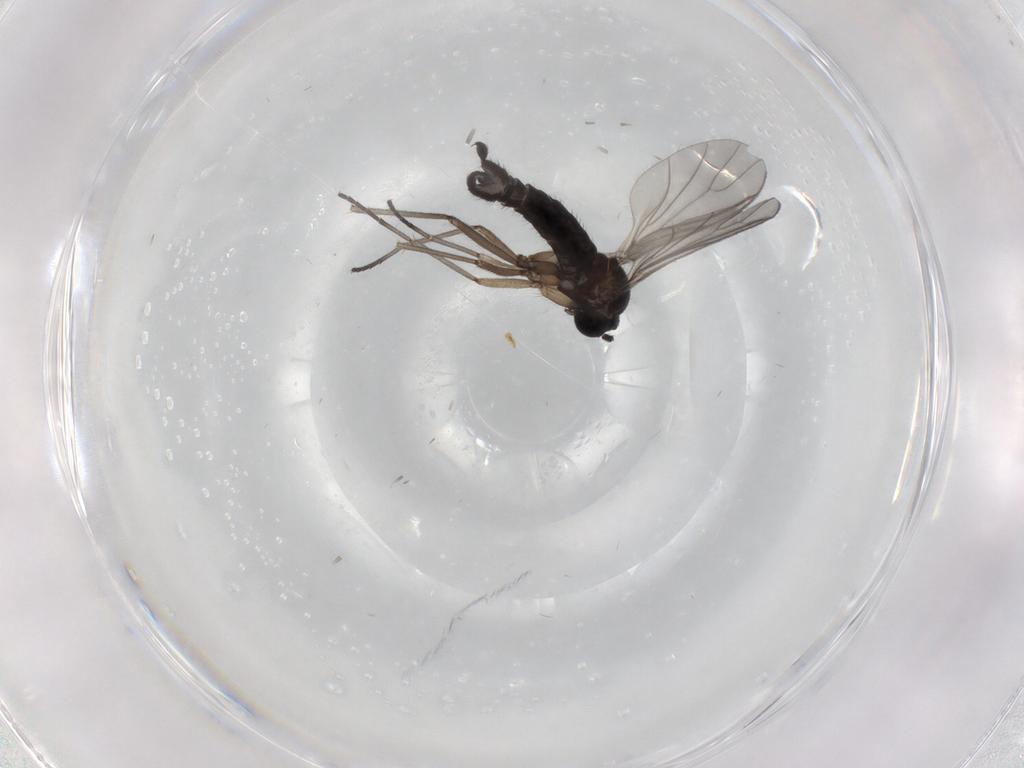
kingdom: Animalia
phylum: Arthropoda
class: Insecta
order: Diptera
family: Sciaridae
